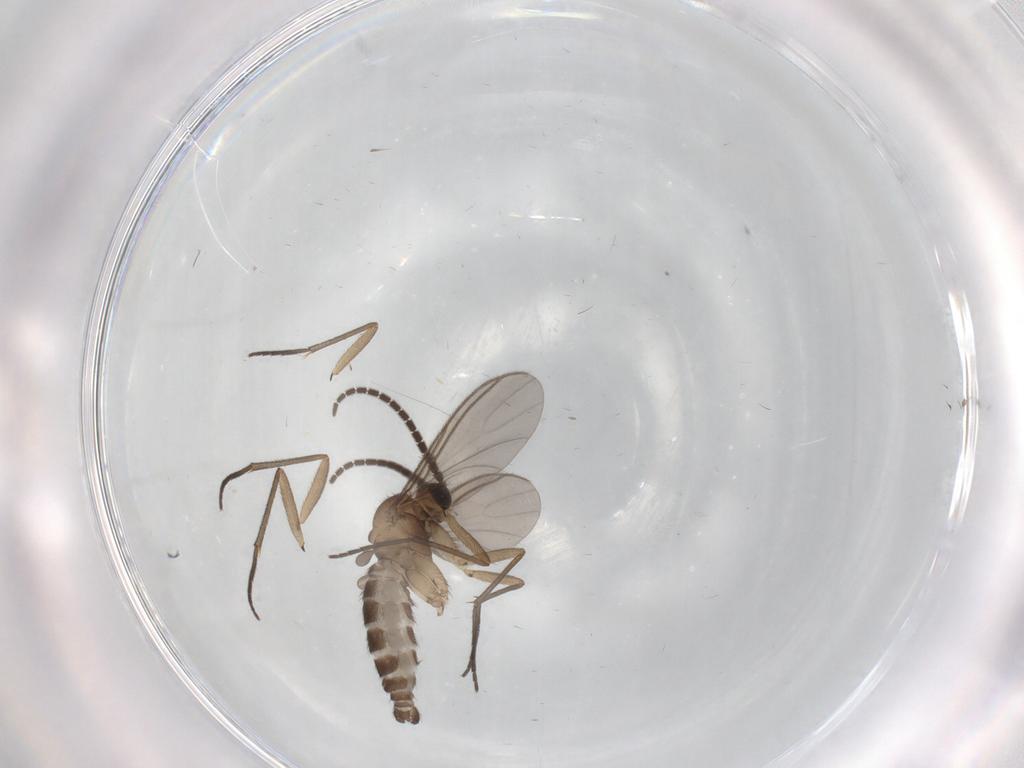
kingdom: Animalia
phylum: Arthropoda
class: Insecta
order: Diptera
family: Sciaridae
